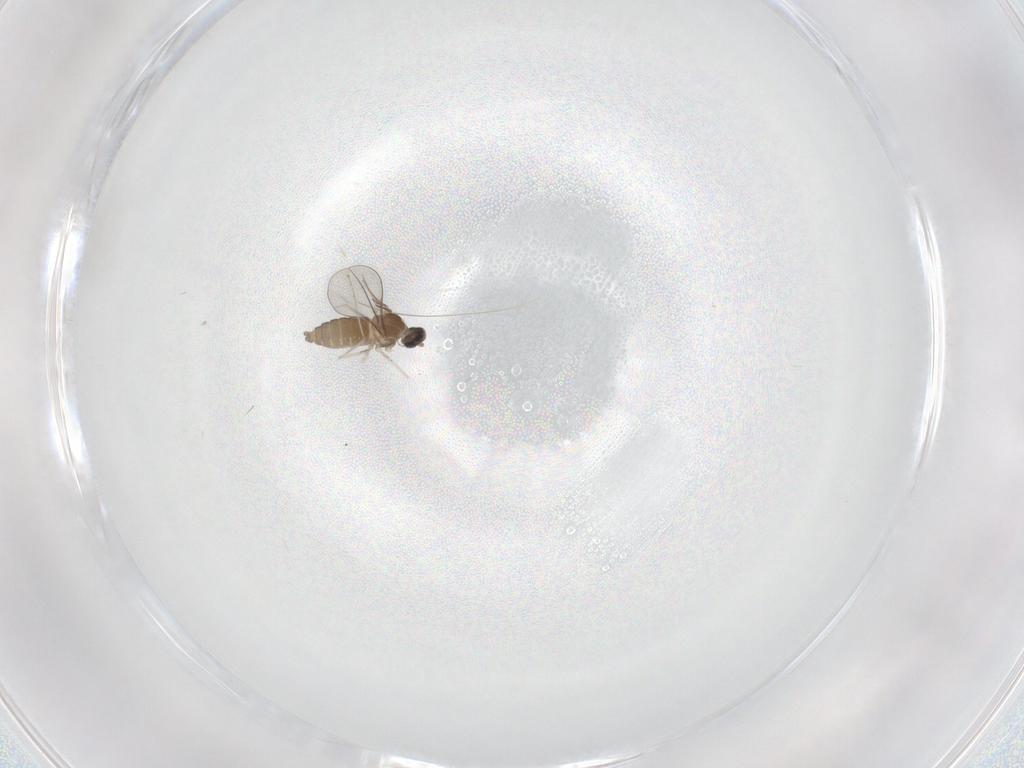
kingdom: Animalia
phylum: Arthropoda
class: Insecta
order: Diptera
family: Cecidomyiidae
